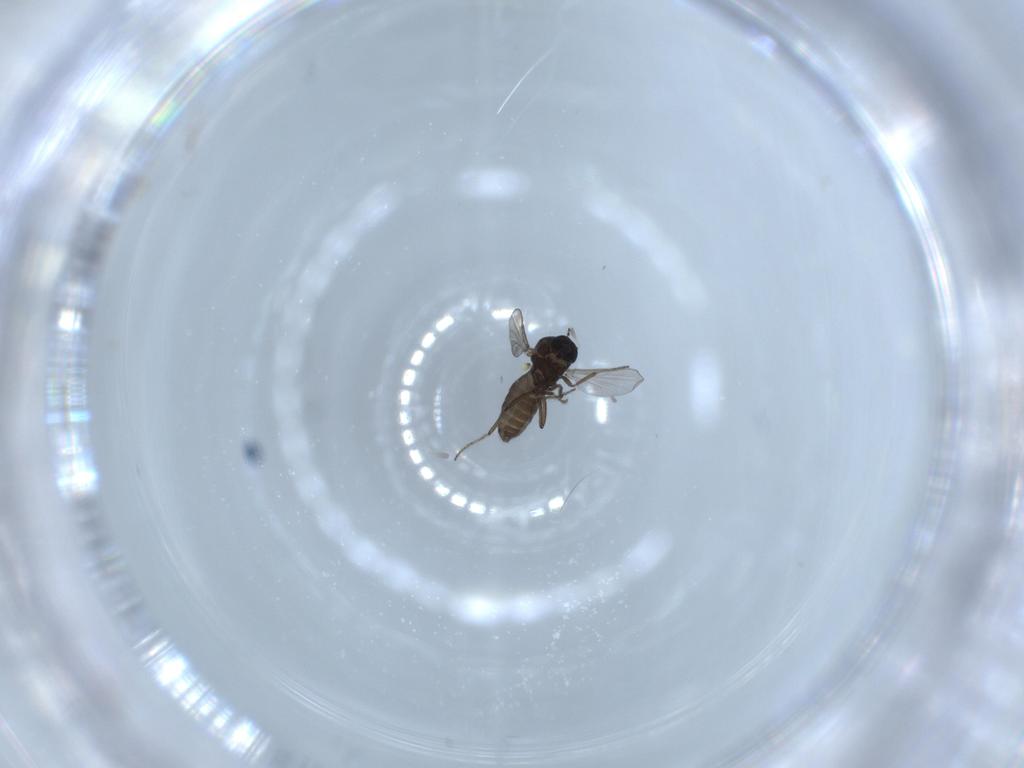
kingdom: Animalia
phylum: Arthropoda
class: Insecta
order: Diptera
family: Ceratopogonidae
